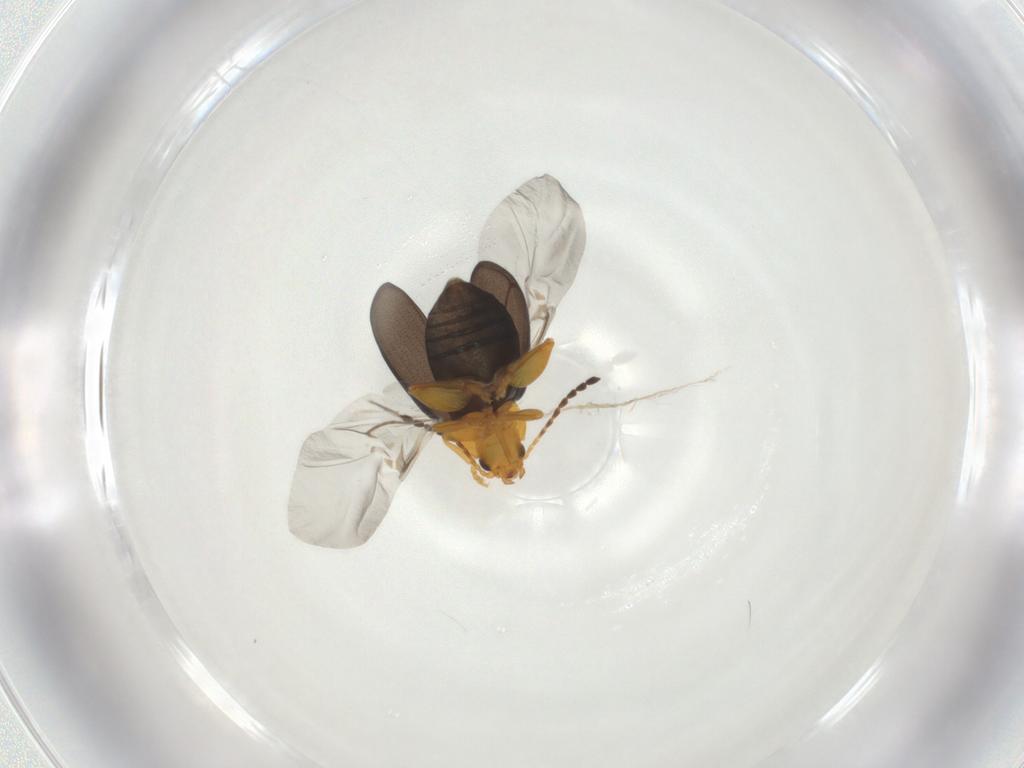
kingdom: Animalia
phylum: Arthropoda
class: Insecta
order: Coleoptera
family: Chrysomelidae
